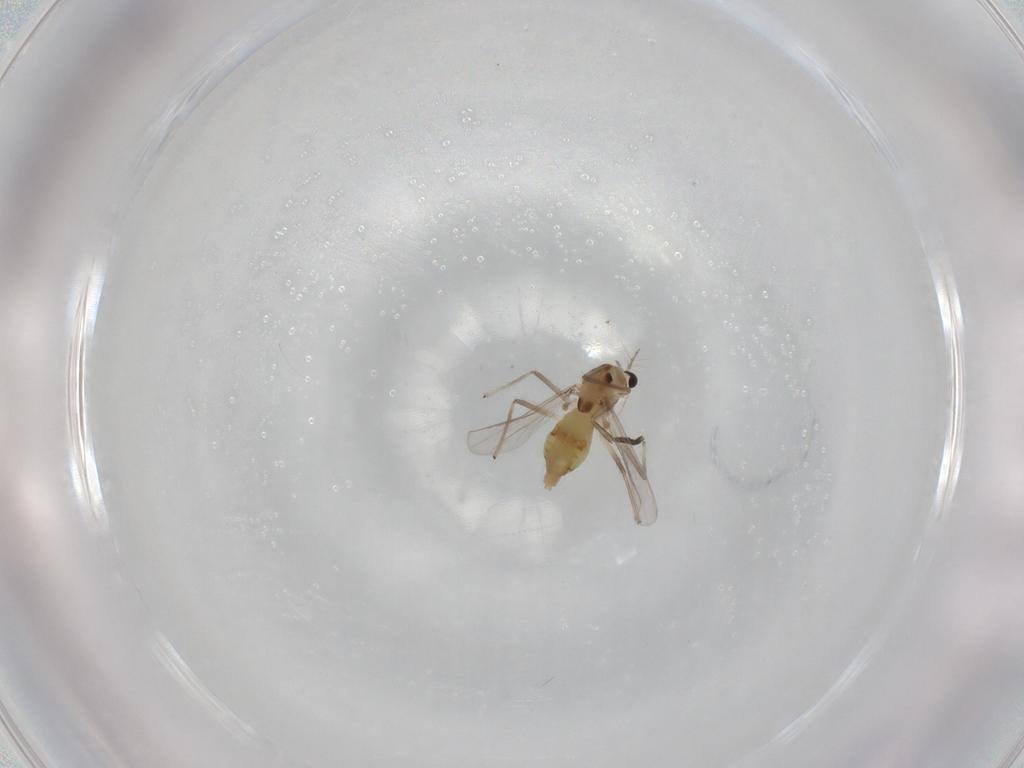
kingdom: Animalia
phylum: Arthropoda
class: Insecta
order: Diptera
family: Chironomidae
